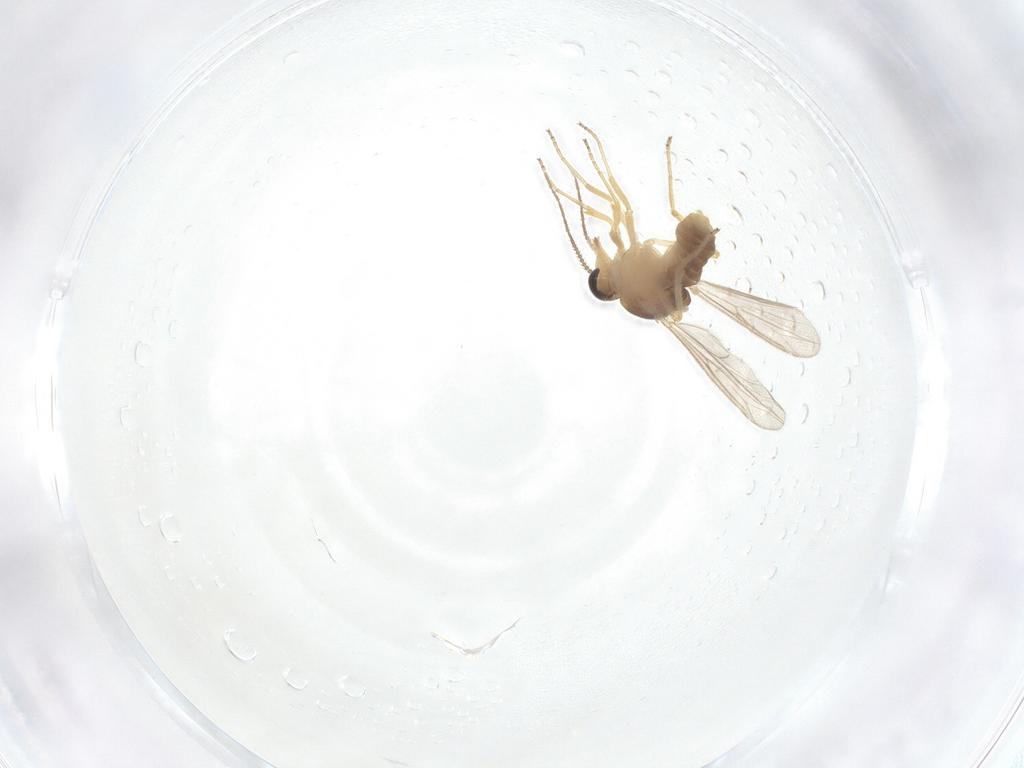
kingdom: Animalia
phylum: Arthropoda
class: Insecta
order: Diptera
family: Ceratopogonidae
